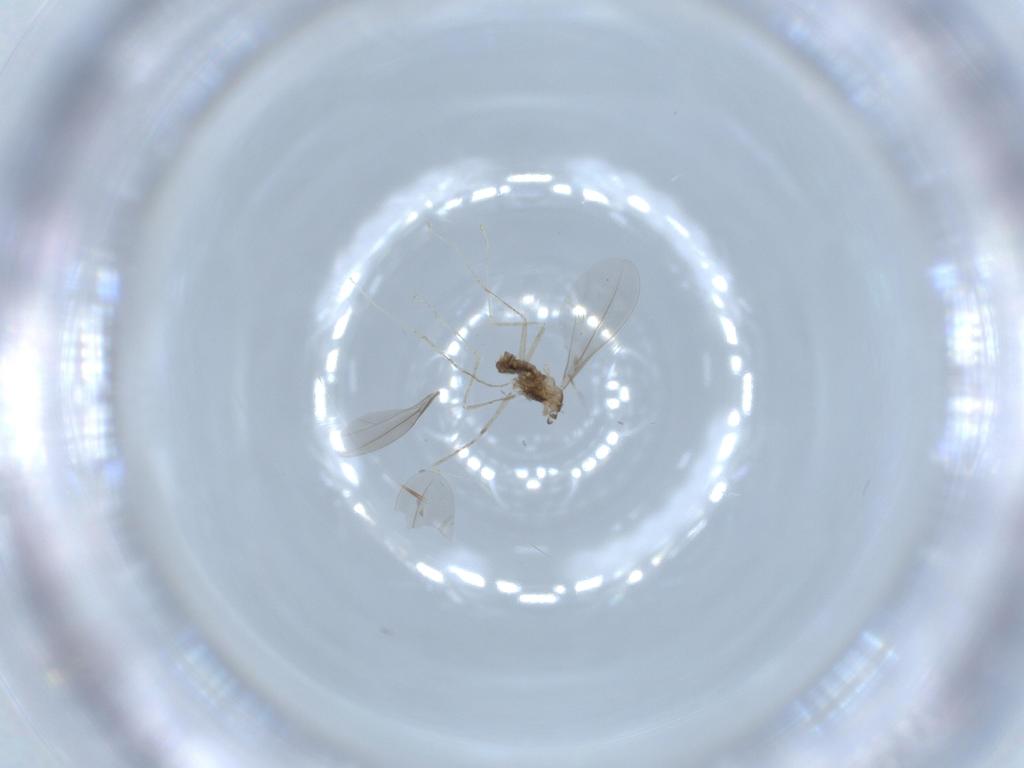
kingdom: Animalia
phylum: Arthropoda
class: Insecta
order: Diptera
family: Cecidomyiidae
